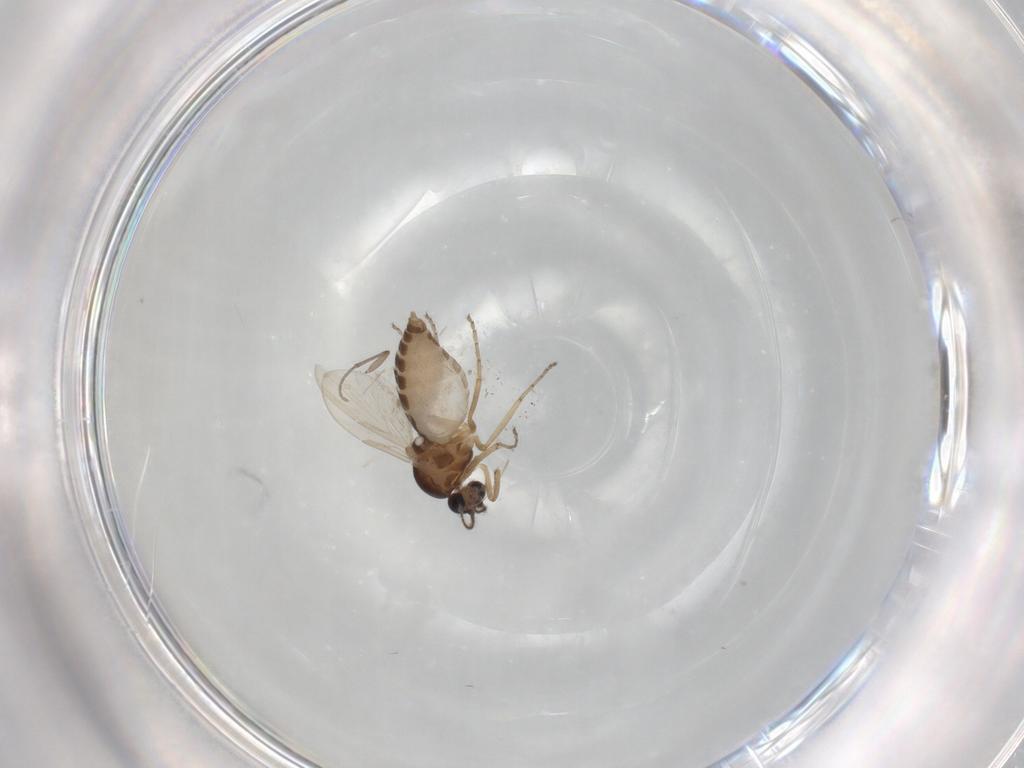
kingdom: Animalia
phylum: Arthropoda
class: Insecta
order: Diptera
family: Ceratopogonidae
